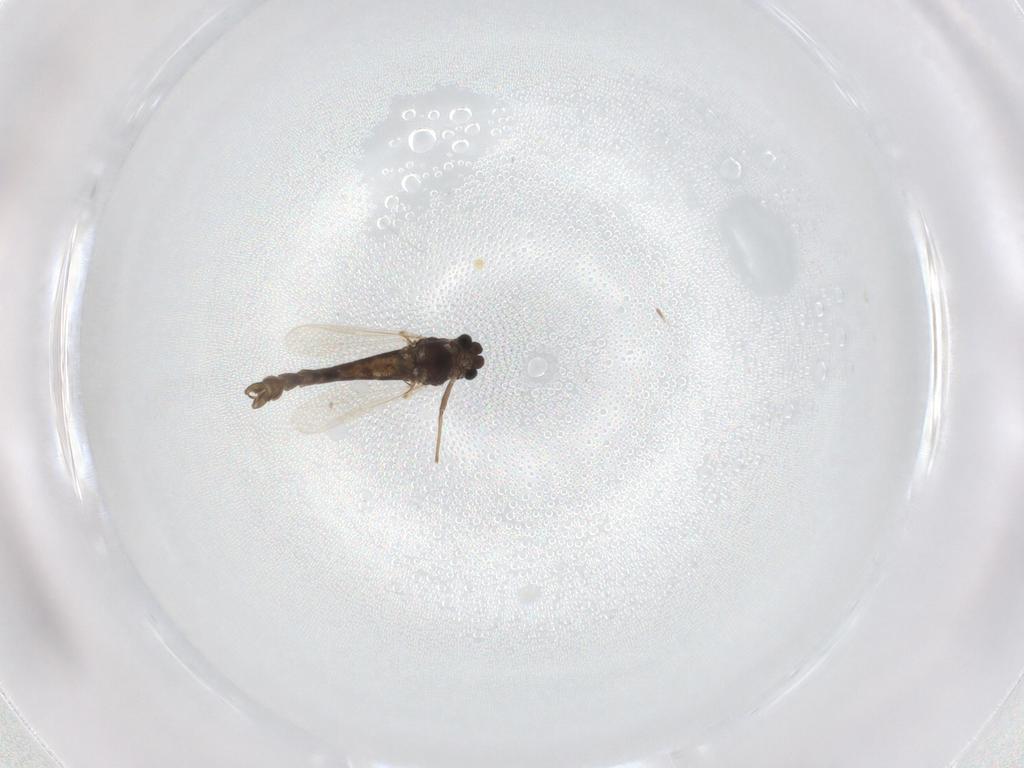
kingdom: Animalia
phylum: Arthropoda
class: Insecta
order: Diptera
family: Chironomidae
